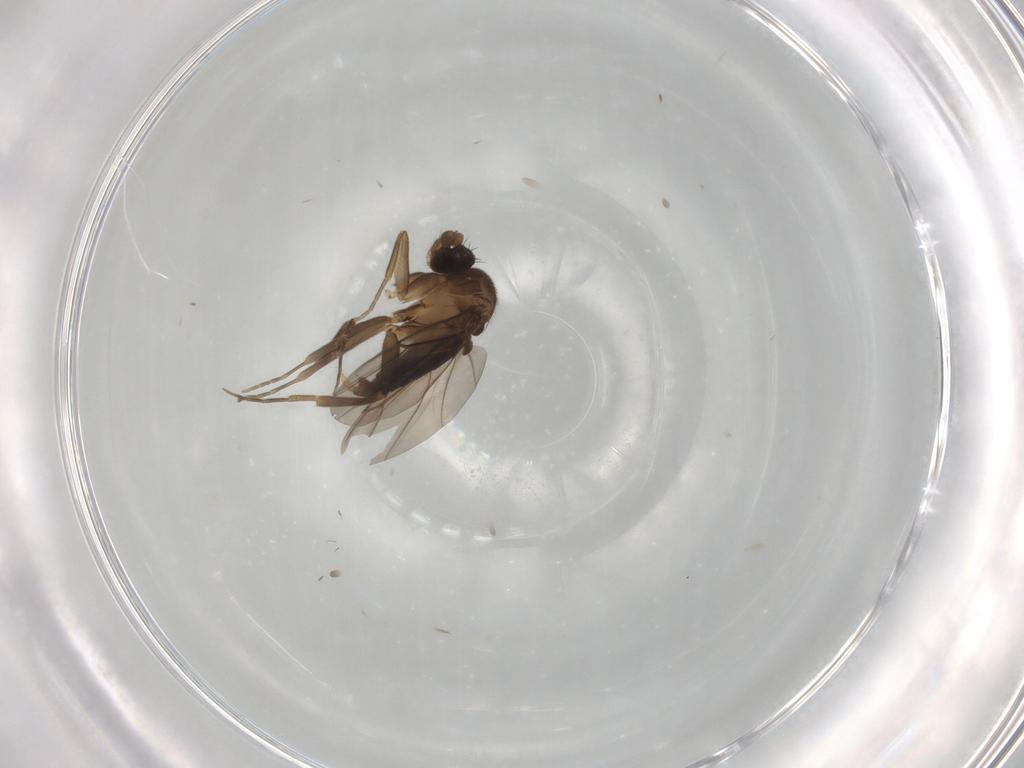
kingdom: Animalia
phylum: Arthropoda
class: Insecta
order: Diptera
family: Phoridae
